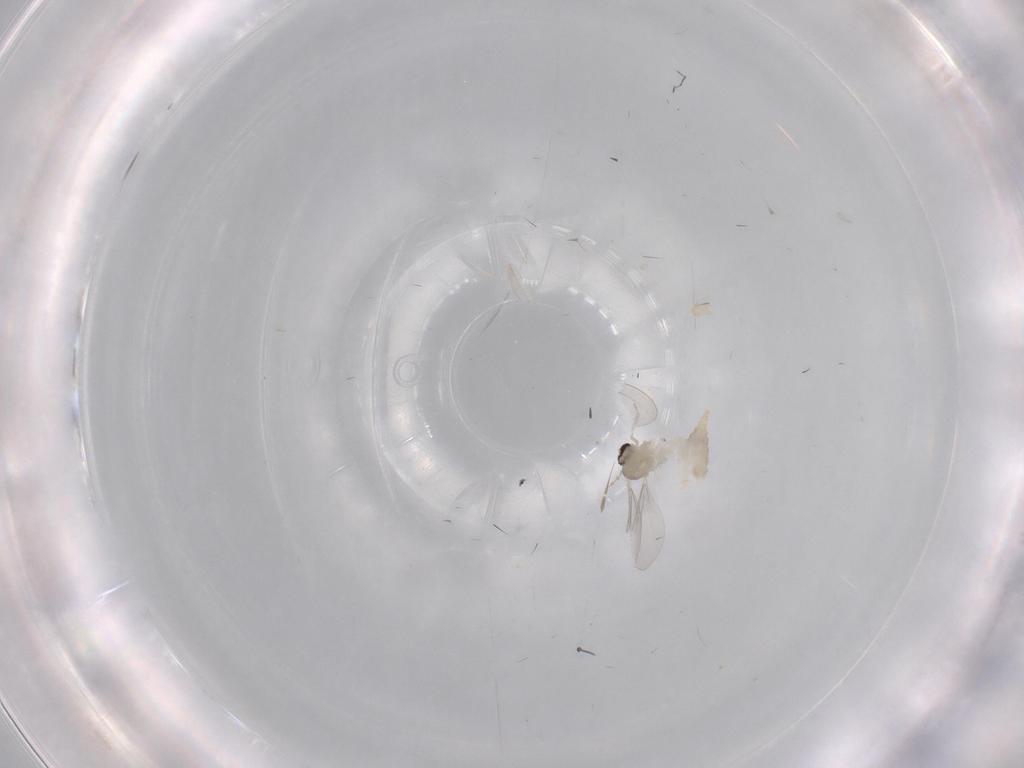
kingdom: Animalia
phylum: Arthropoda
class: Insecta
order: Diptera
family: Cecidomyiidae
